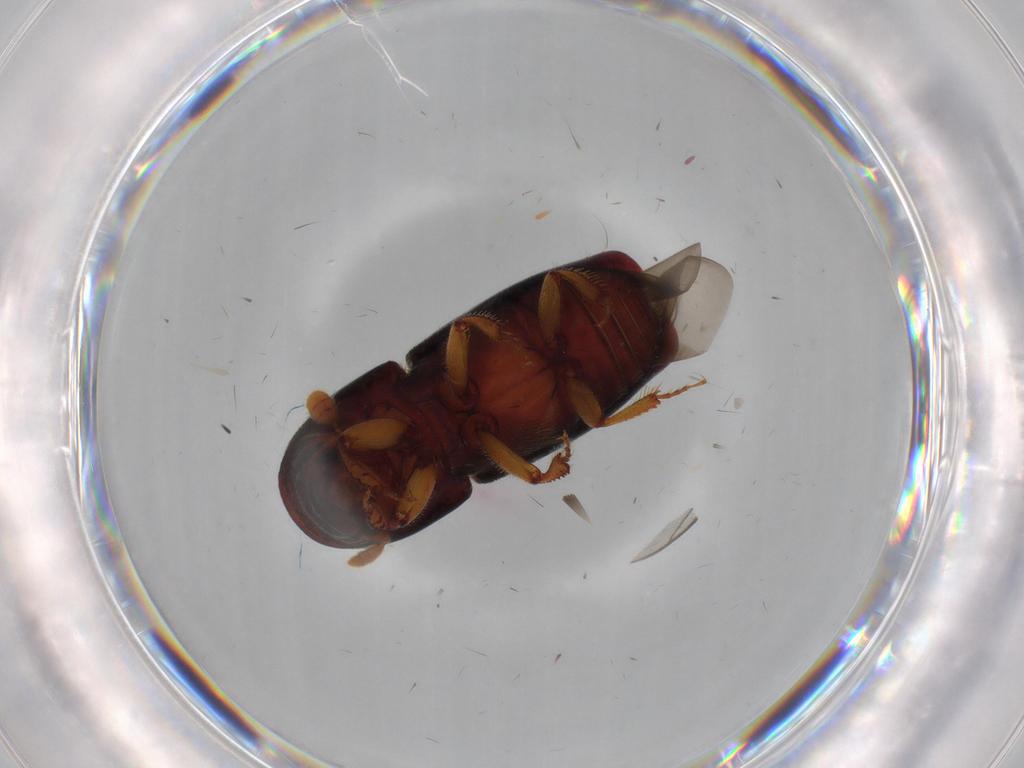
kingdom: Animalia
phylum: Arthropoda
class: Insecta
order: Coleoptera
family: Curculionidae
